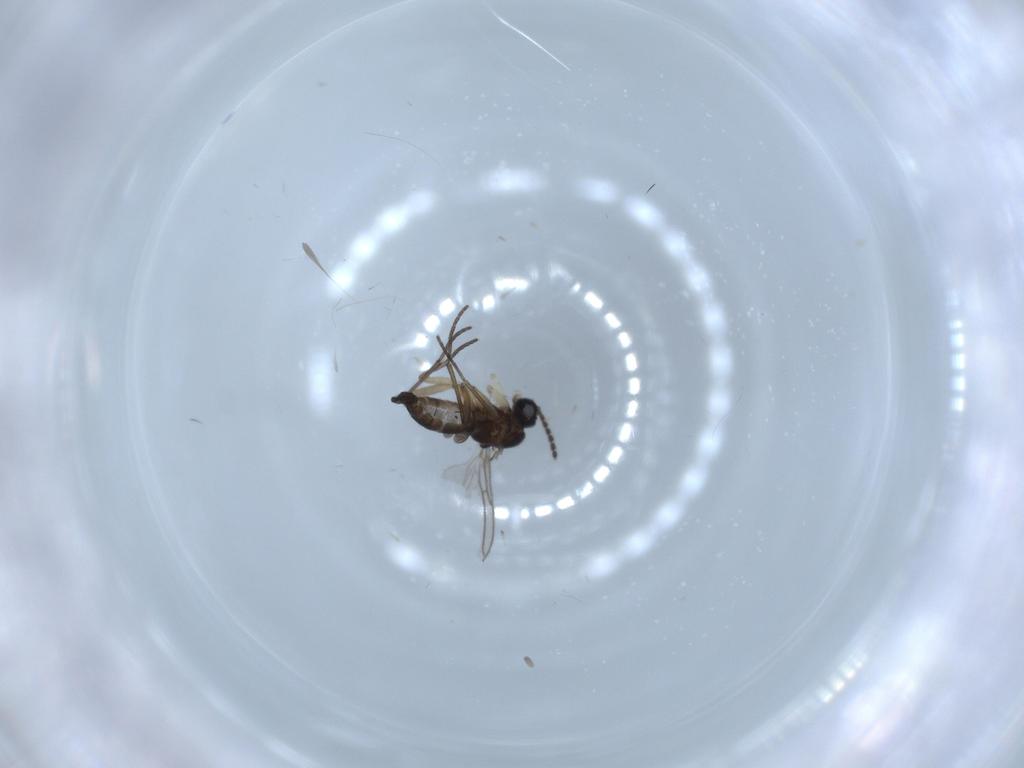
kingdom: Animalia
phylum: Arthropoda
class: Insecta
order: Diptera
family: Sciaridae
